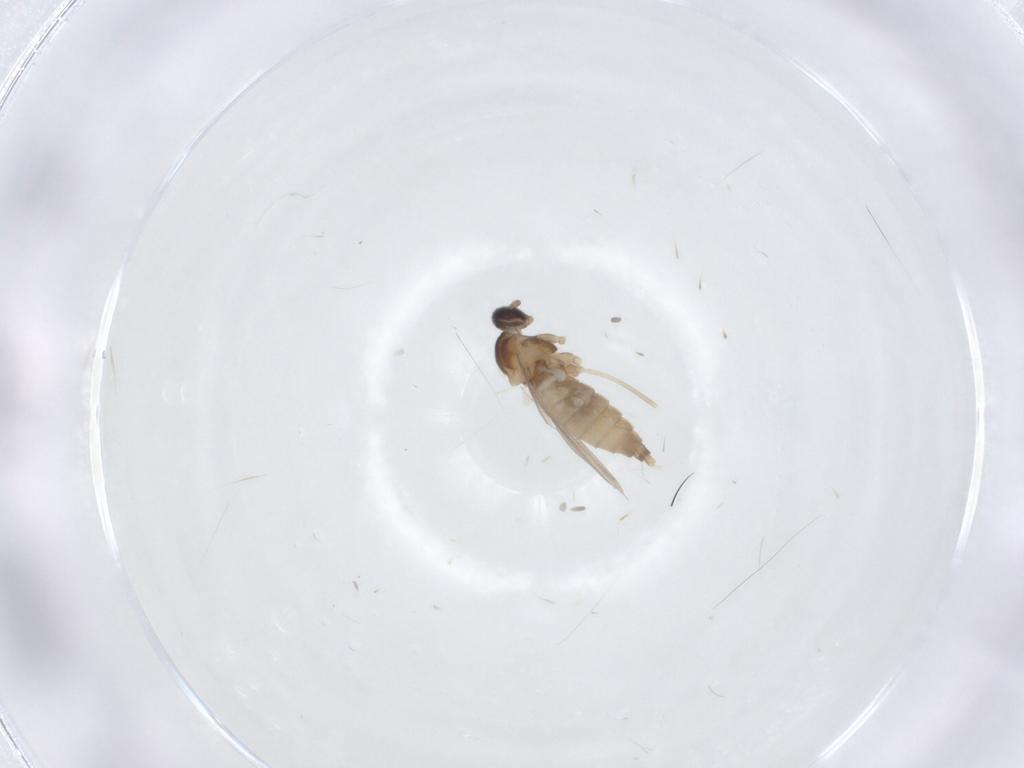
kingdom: Animalia
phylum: Arthropoda
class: Insecta
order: Diptera
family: Cecidomyiidae
